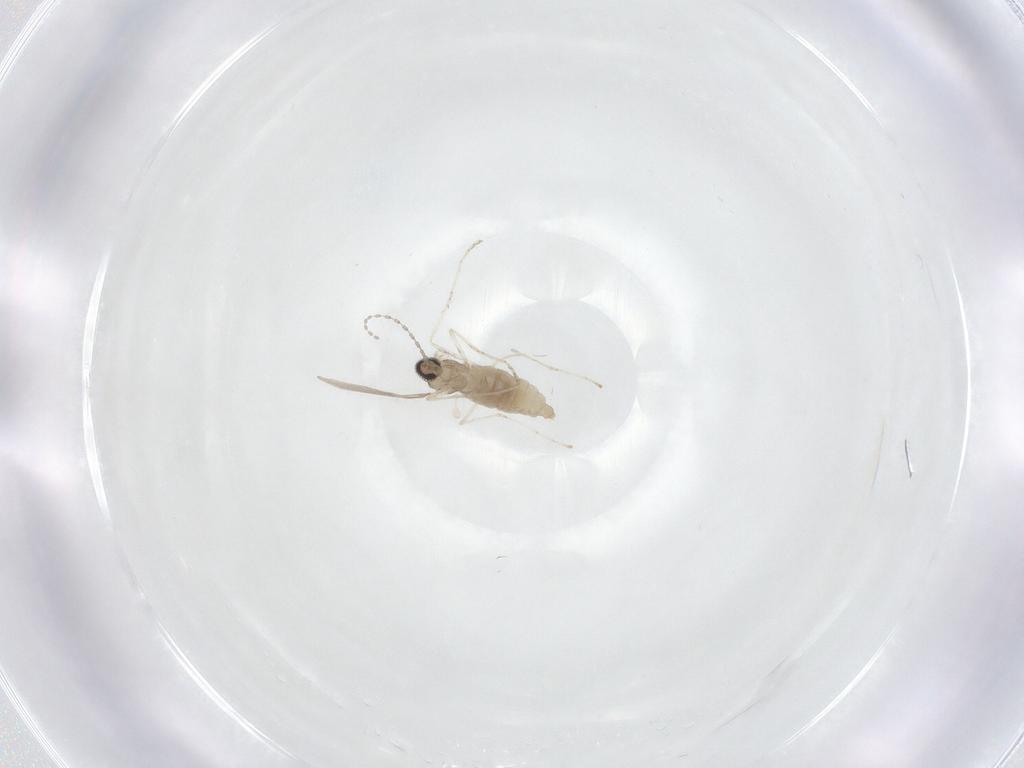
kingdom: Animalia
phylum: Arthropoda
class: Insecta
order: Diptera
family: Cecidomyiidae
